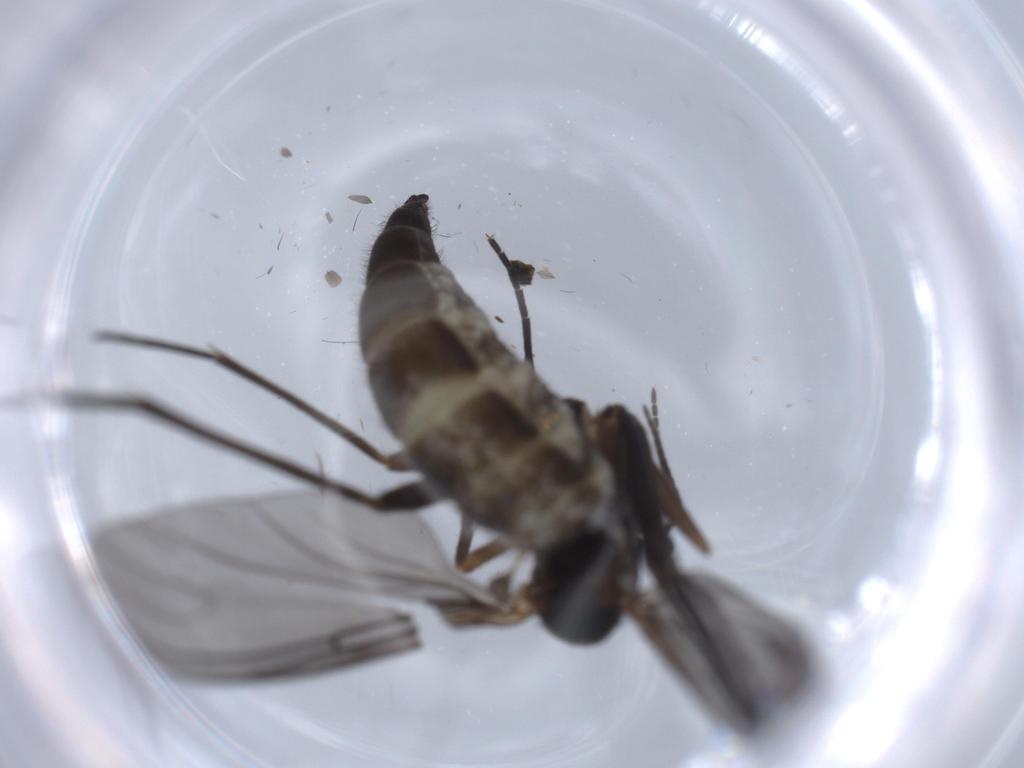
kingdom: Animalia
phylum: Arthropoda
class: Insecta
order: Diptera
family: Sciaridae
